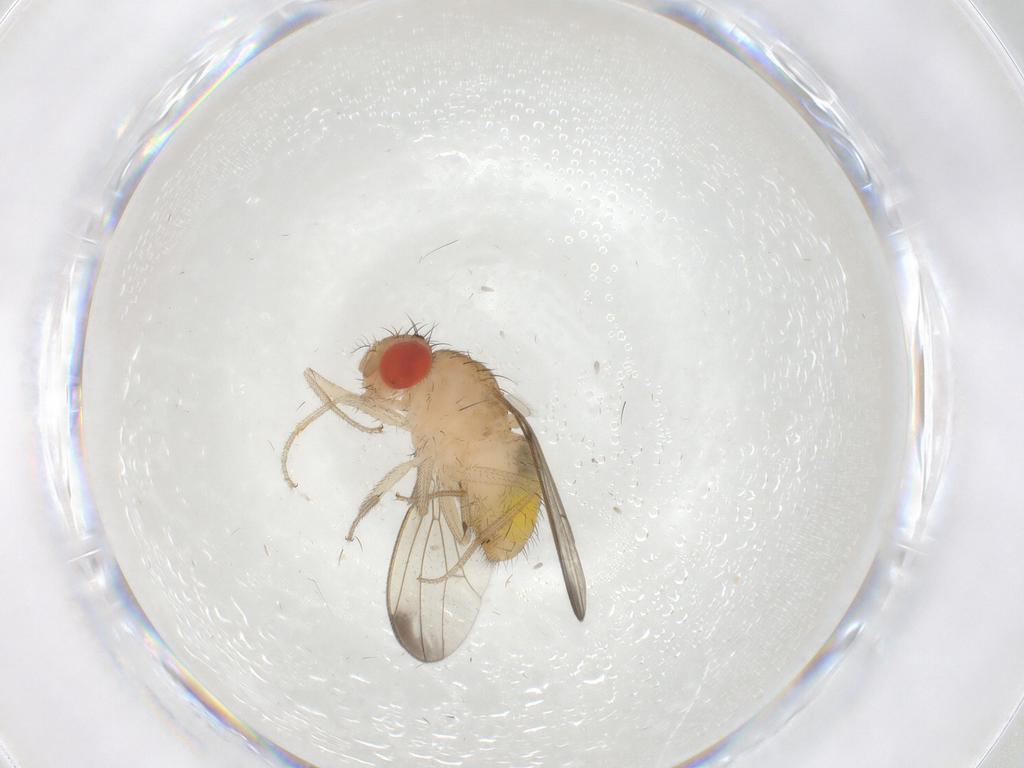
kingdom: Animalia
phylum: Arthropoda
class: Insecta
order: Diptera
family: Drosophilidae
